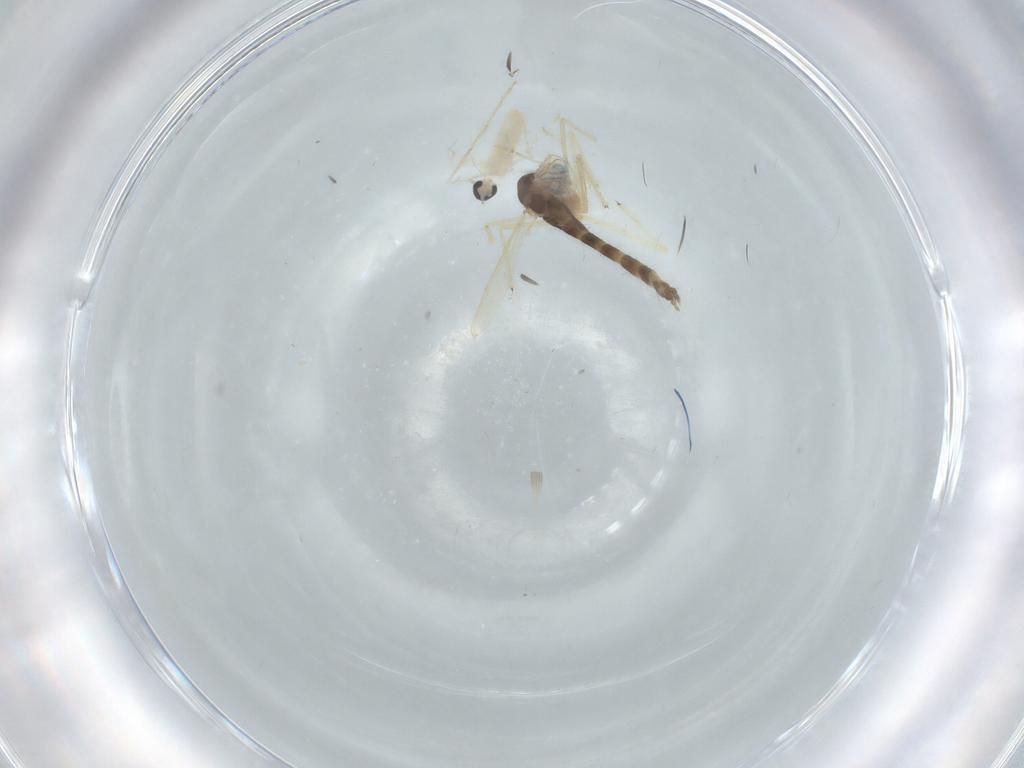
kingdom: Animalia
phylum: Arthropoda
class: Insecta
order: Diptera
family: Cecidomyiidae
